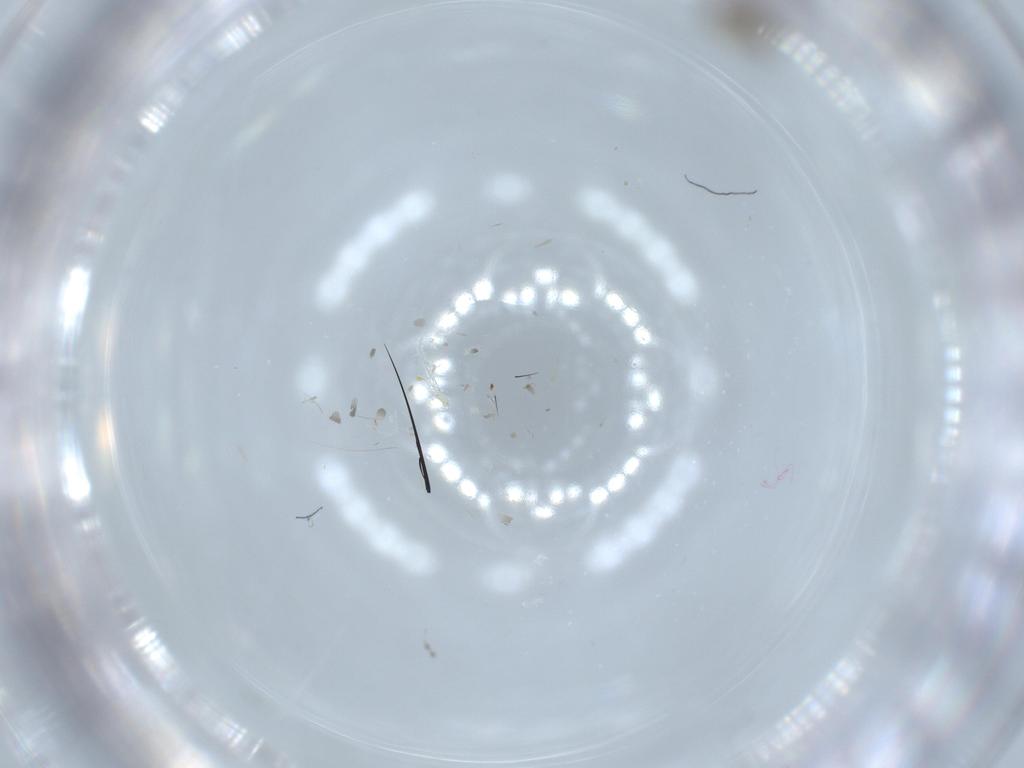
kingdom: Animalia
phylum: Arthropoda
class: Insecta
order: Diptera
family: Chironomidae
